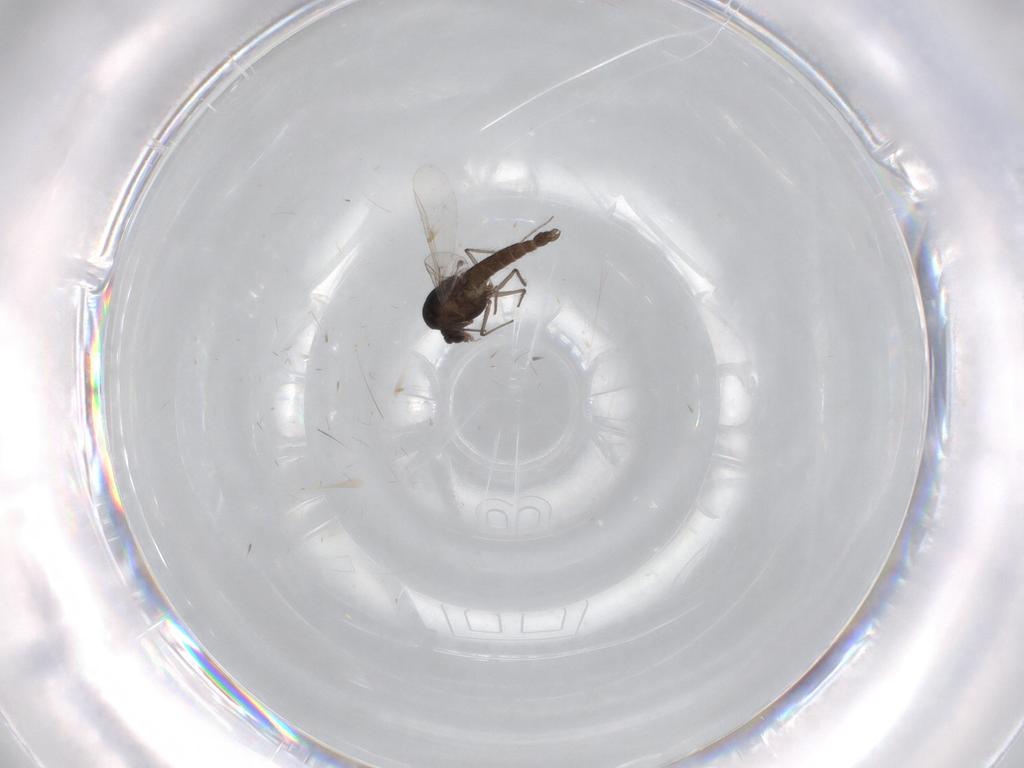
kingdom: Animalia
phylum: Arthropoda
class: Insecta
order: Diptera
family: Chironomidae
